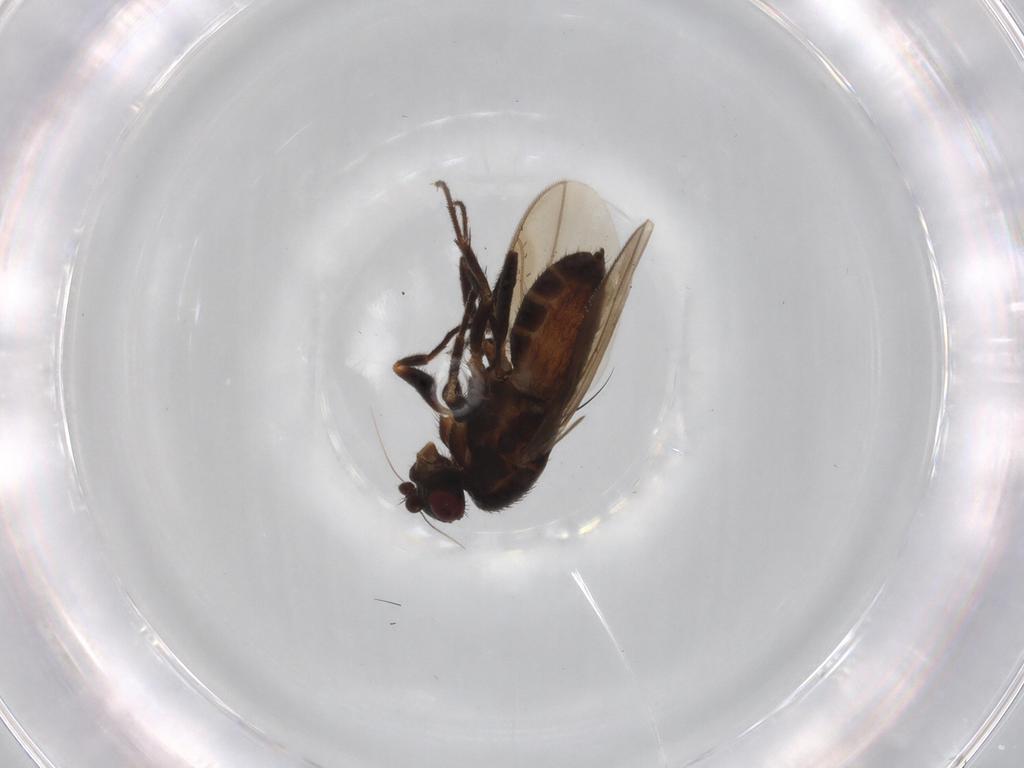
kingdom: Animalia
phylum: Arthropoda
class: Insecta
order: Diptera
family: Sphaeroceridae
